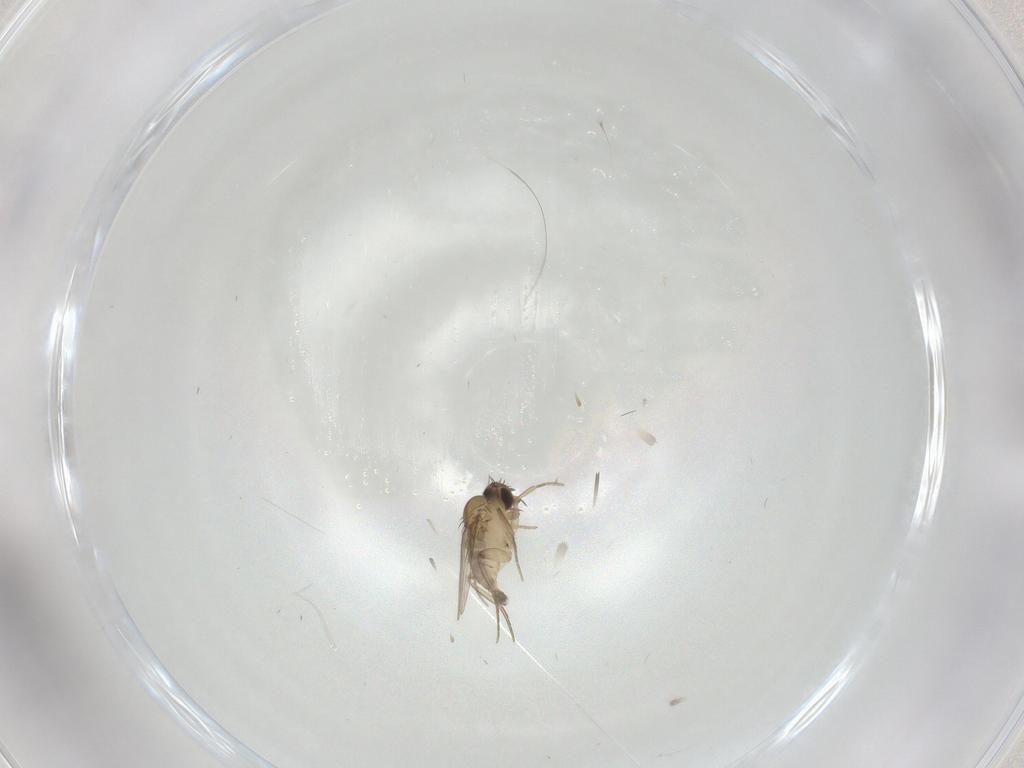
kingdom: Animalia
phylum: Arthropoda
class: Insecta
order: Diptera
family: Phoridae
